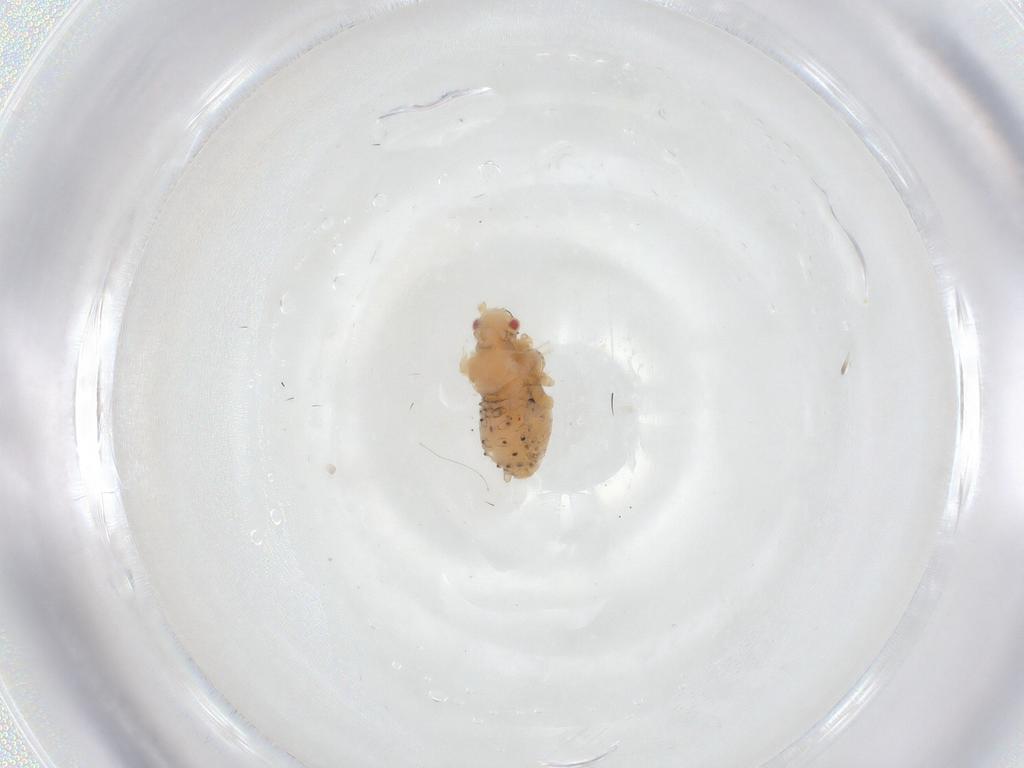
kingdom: Animalia
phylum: Arthropoda
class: Insecta
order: Hemiptera
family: Aphididae
